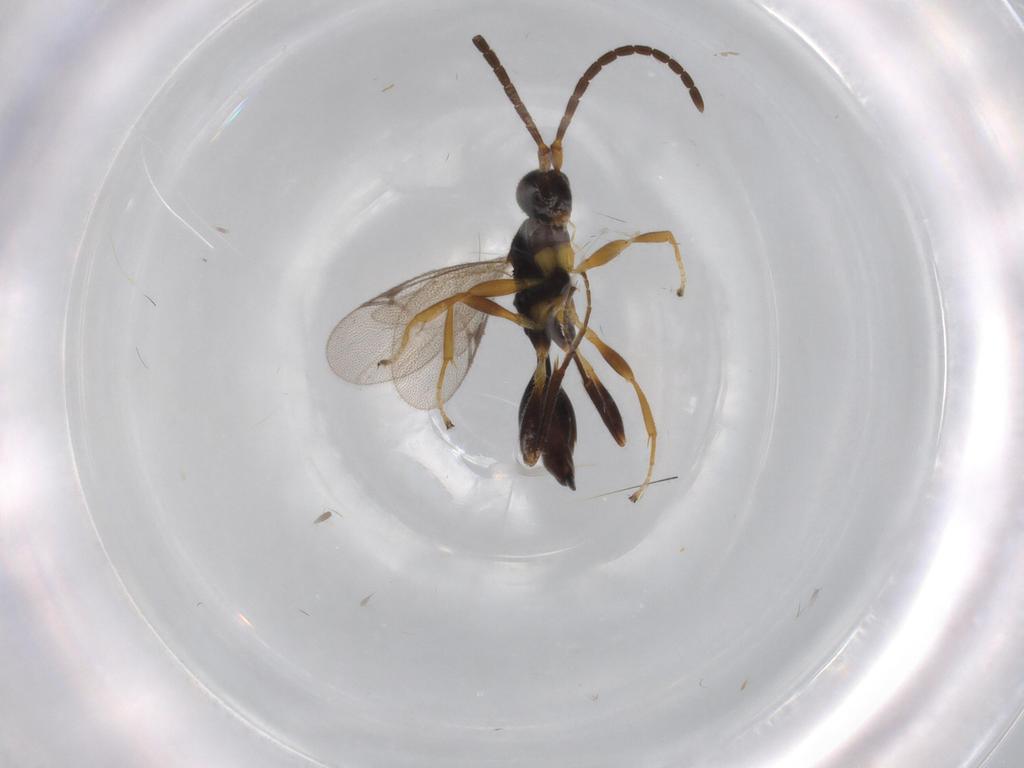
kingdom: Animalia
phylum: Arthropoda
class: Insecta
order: Hymenoptera
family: Proctotrupidae
